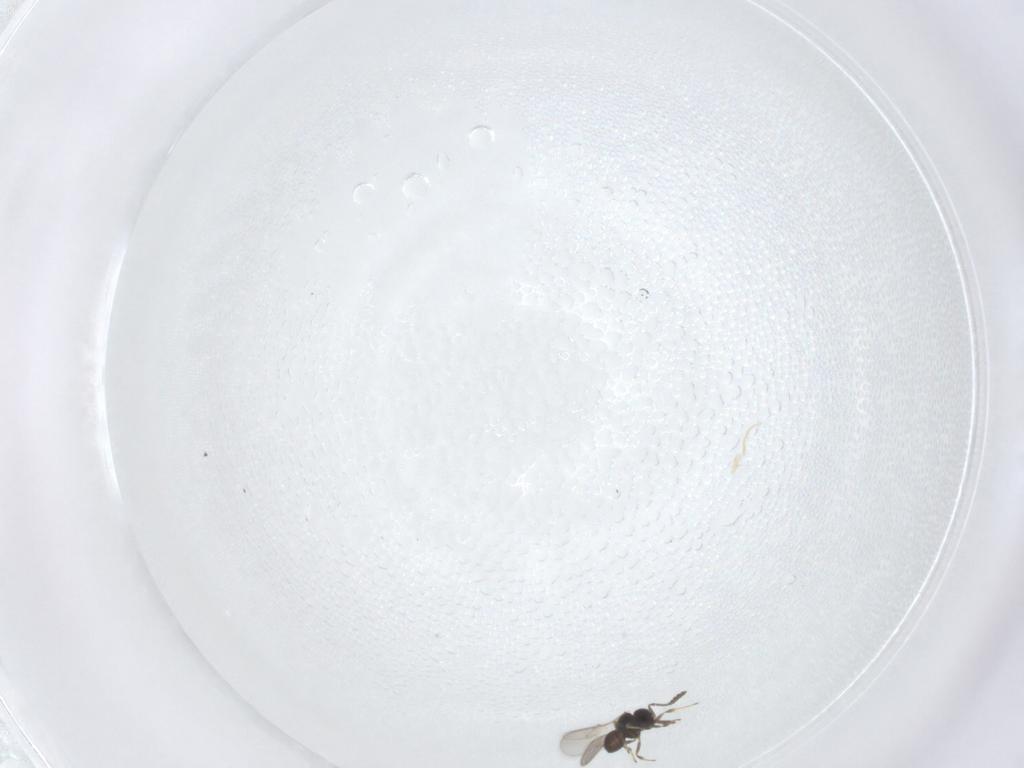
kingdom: Animalia
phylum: Arthropoda
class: Insecta
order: Hymenoptera
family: Scelionidae
